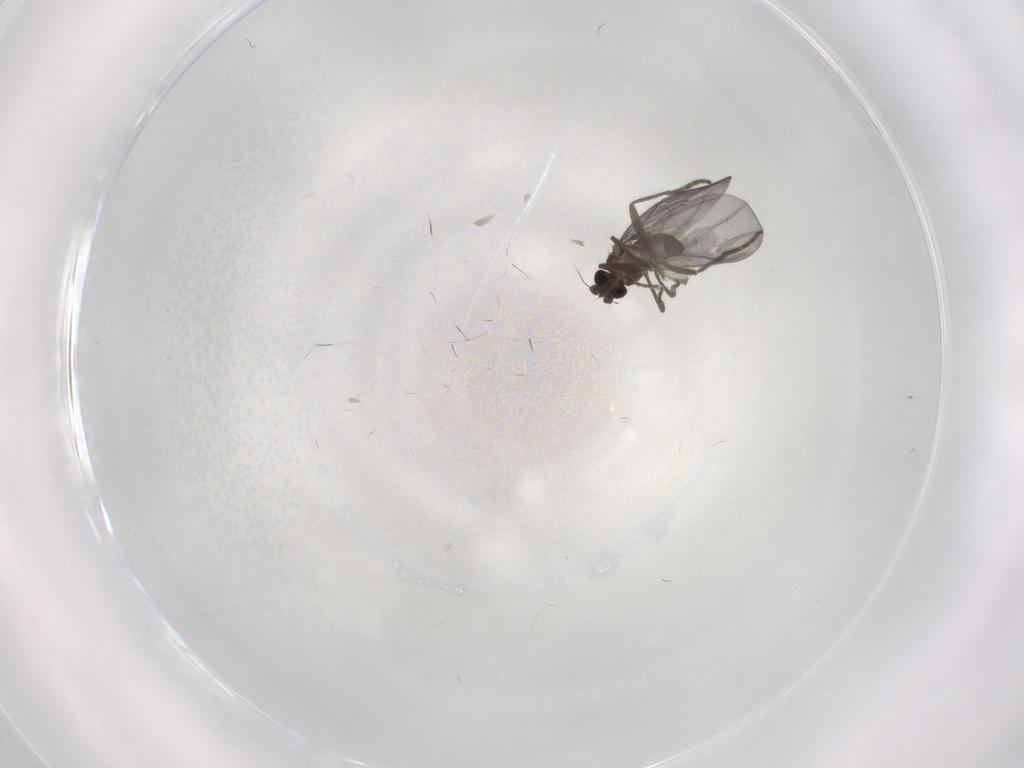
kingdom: Animalia
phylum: Arthropoda
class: Insecta
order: Diptera
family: Phoridae
